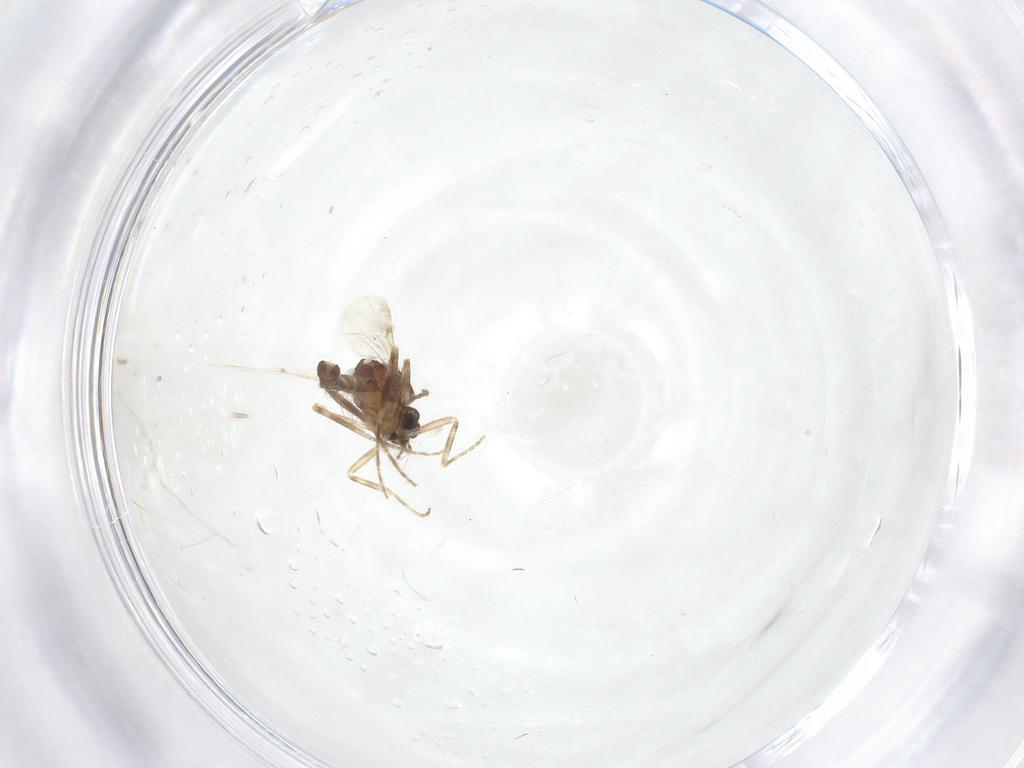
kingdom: Animalia
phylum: Arthropoda
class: Insecta
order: Diptera
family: Ceratopogonidae
